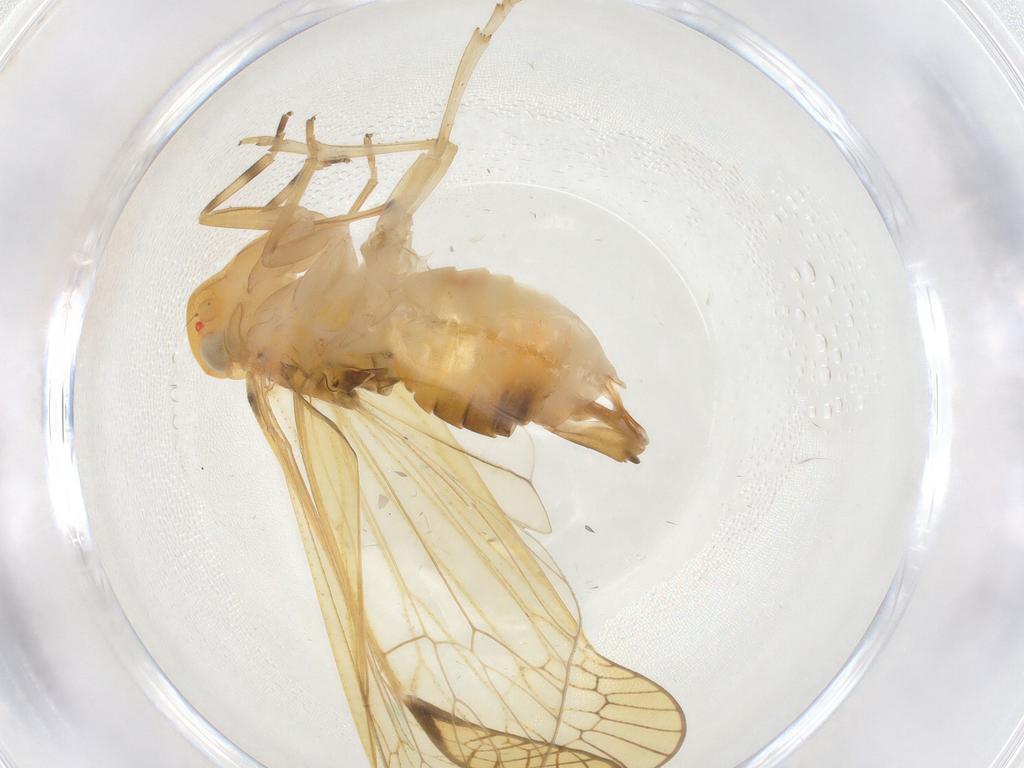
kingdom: Animalia
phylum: Arthropoda
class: Insecta
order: Hemiptera
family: Cixiidae
